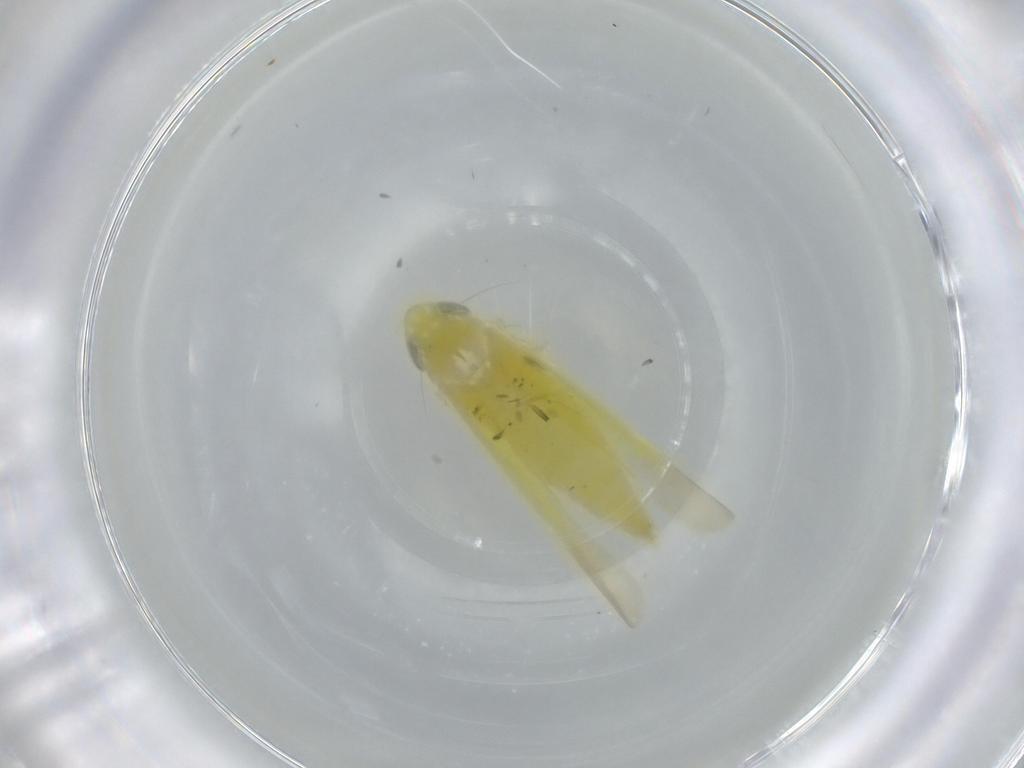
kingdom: Animalia
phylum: Arthropoda
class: Insecta
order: Hemiptera
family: Cicadellidae
